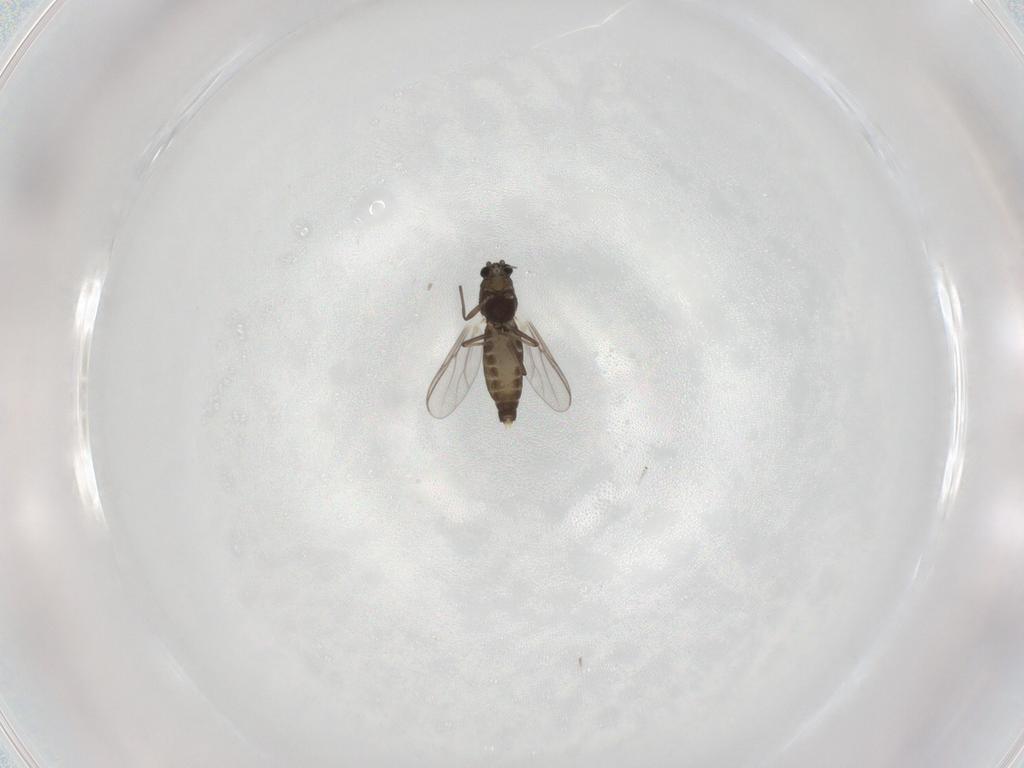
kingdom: Animalia
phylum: Arthropoda
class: Insecta
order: Diptera
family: Chironomidae
